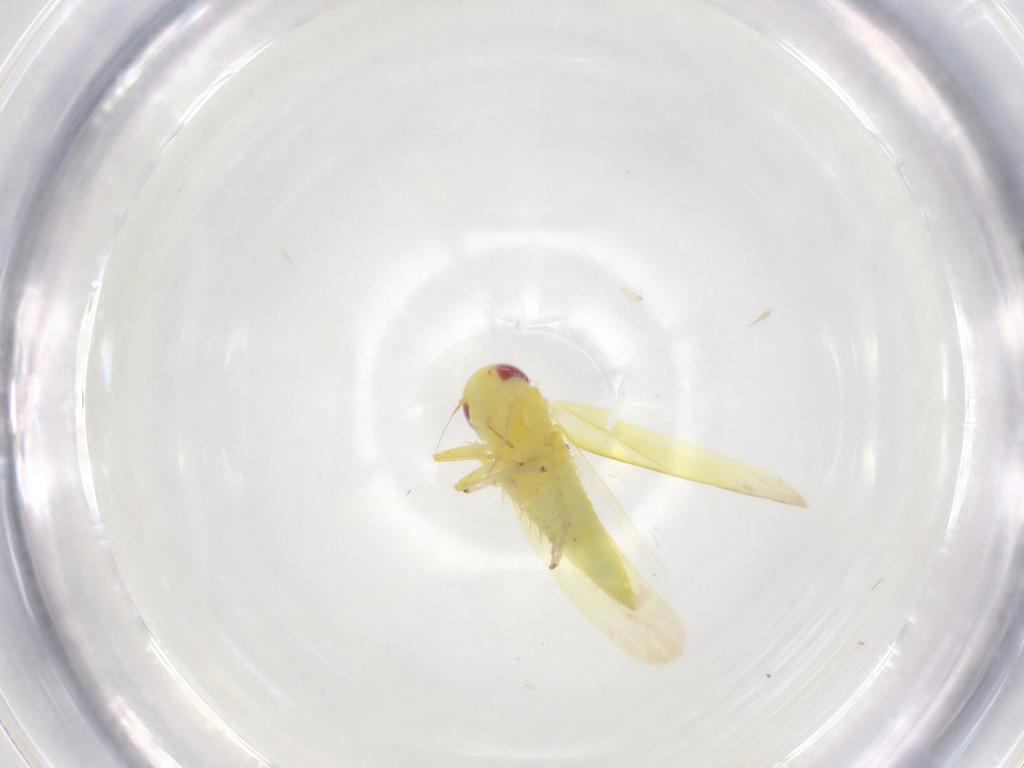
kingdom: Animalia
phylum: Arthropoda
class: Insecta
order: Hemiptera
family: Cicadellidae
